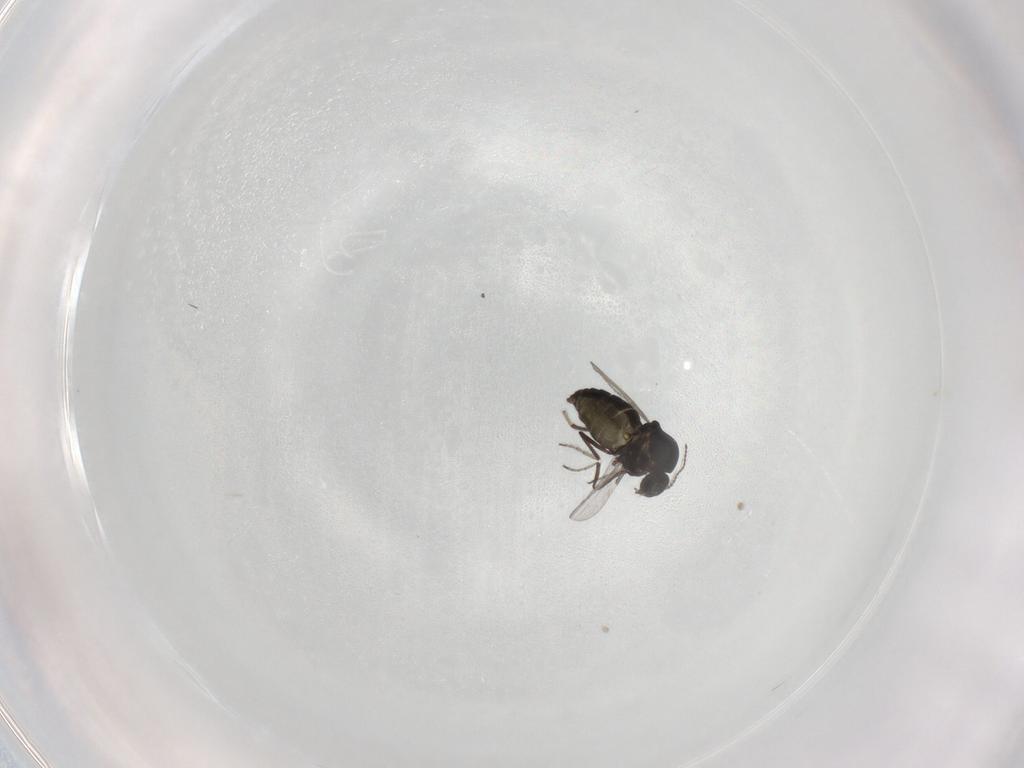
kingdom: Animalia
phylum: Arthropoda
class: Insecta
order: Diptera
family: Ceratopogonidae
